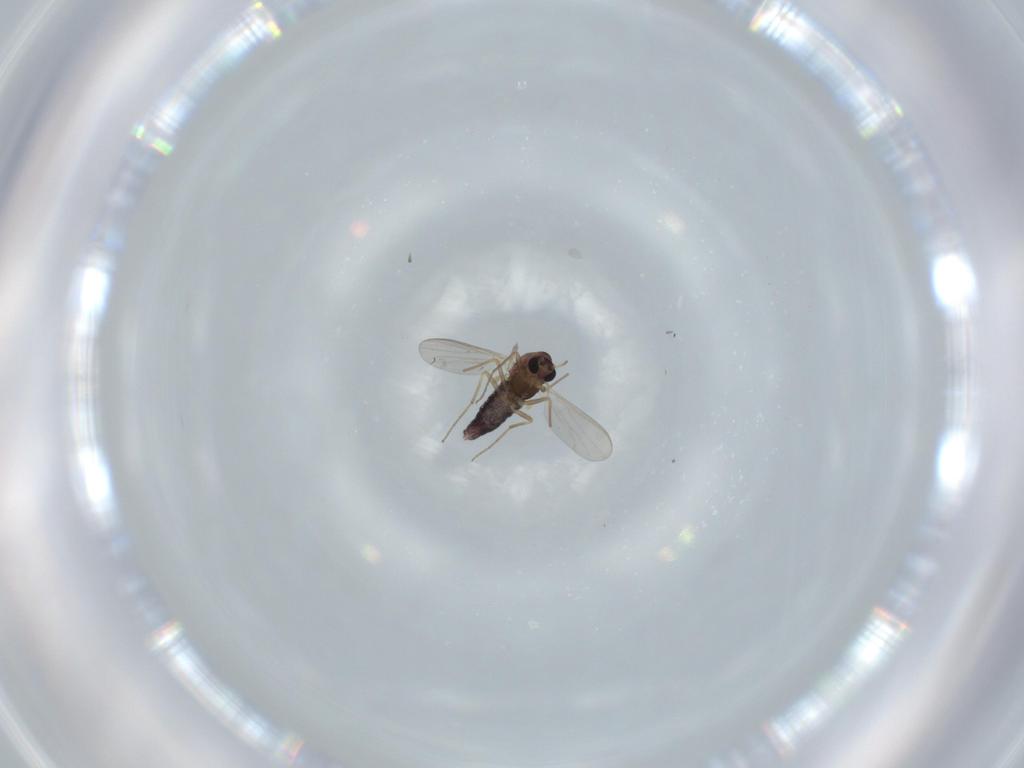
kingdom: Animalia
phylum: Arthropoda
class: Insecta
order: Diptera
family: Chironomidae
